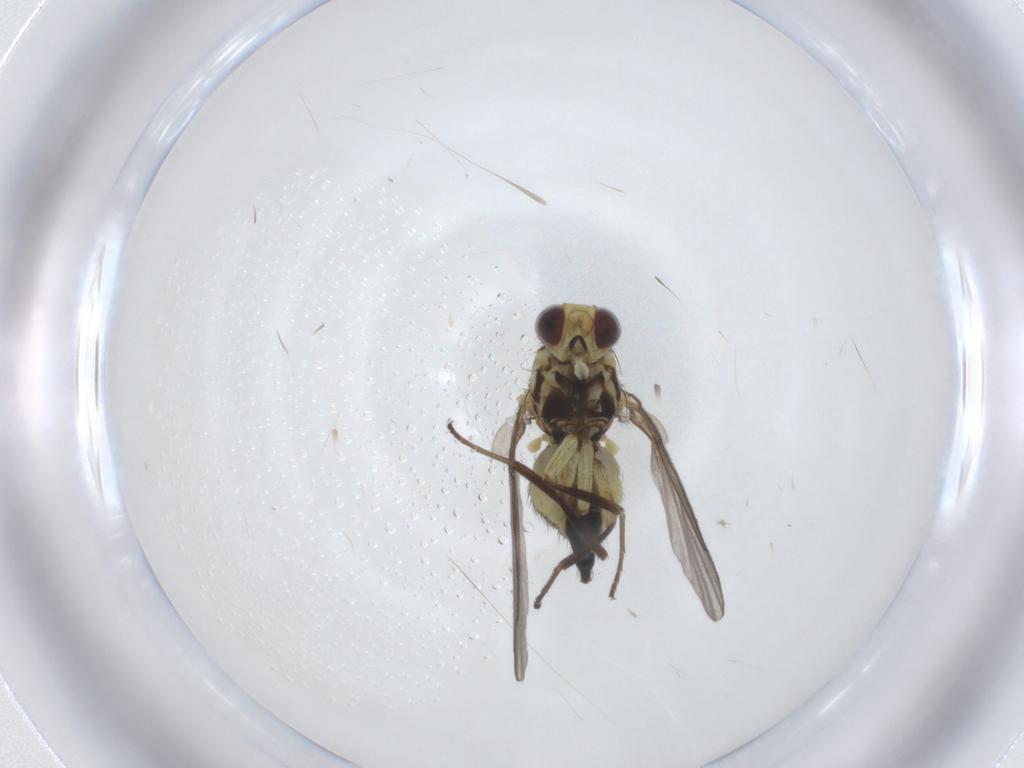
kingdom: Animalia
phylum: Arthropoda
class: Insecta
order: Diptera
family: Agromyzidae
